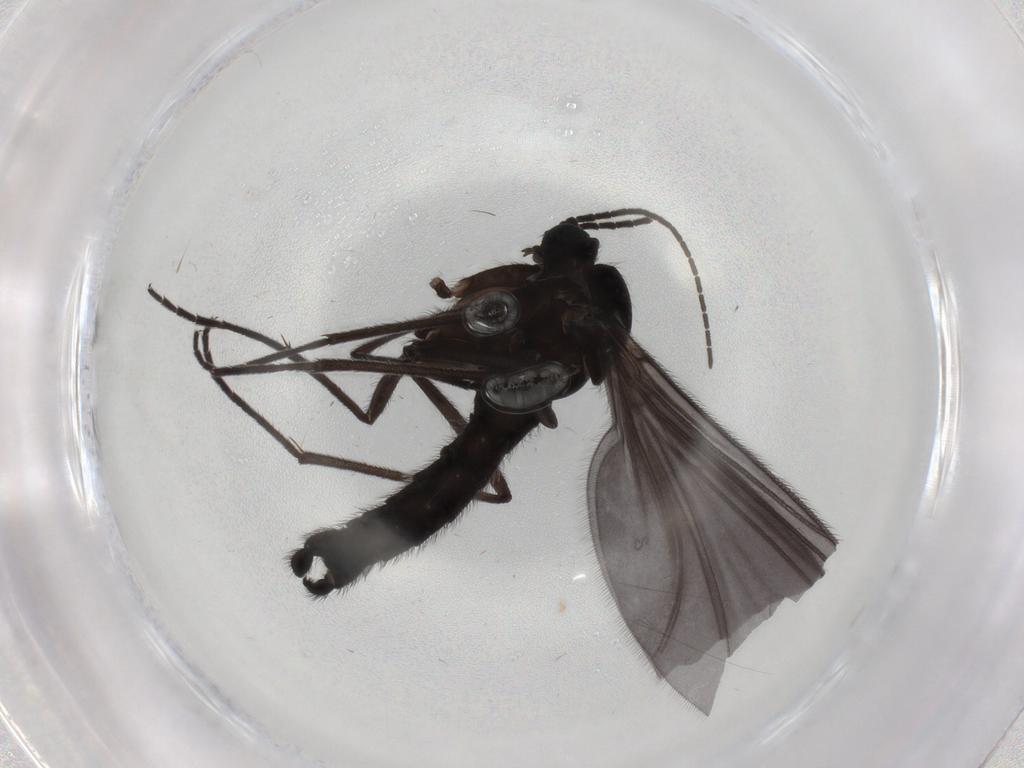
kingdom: Animalia
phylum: Arthropoda
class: Insecta
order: Diptera
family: Sciaridae
